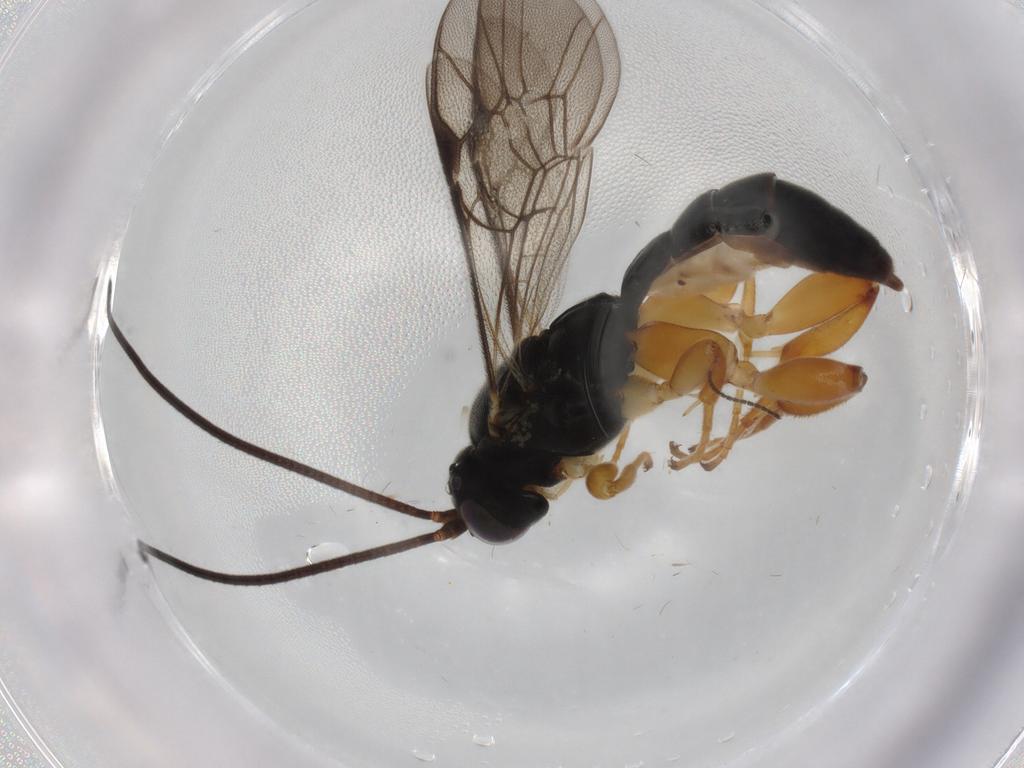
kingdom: Animalia
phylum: Arthropoda
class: Insecta
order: Hymenoptera
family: Ichneumonidae
